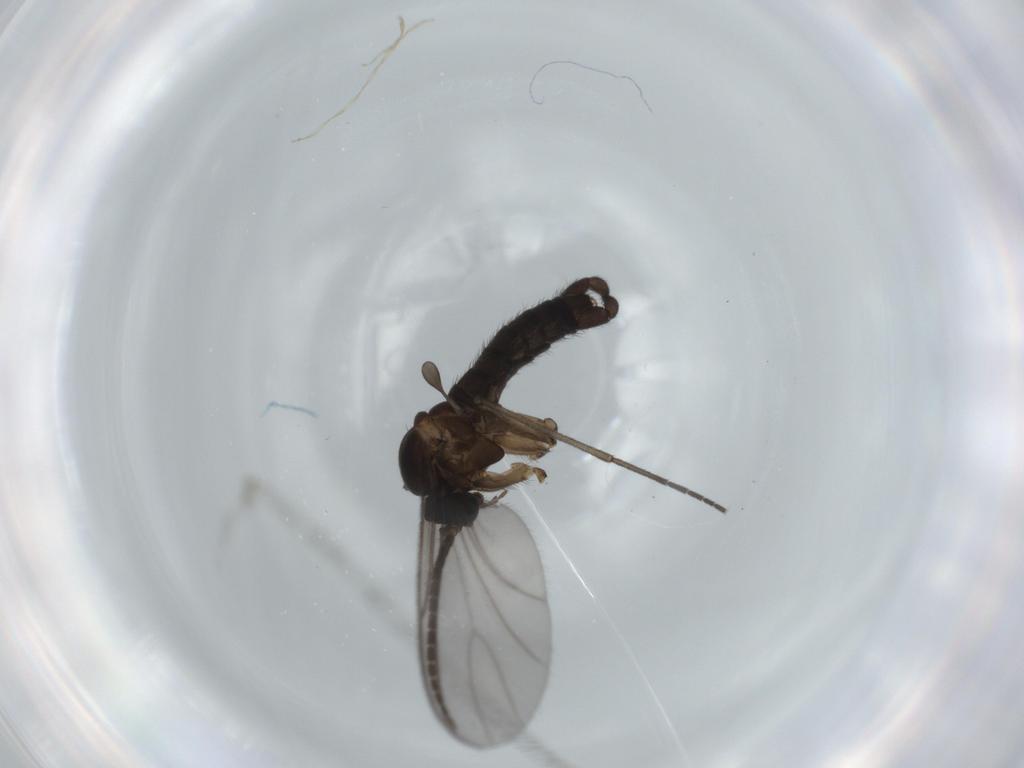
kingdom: Animalia
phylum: Arthropoda
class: Insecta
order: Diptera
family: Sciaridae
